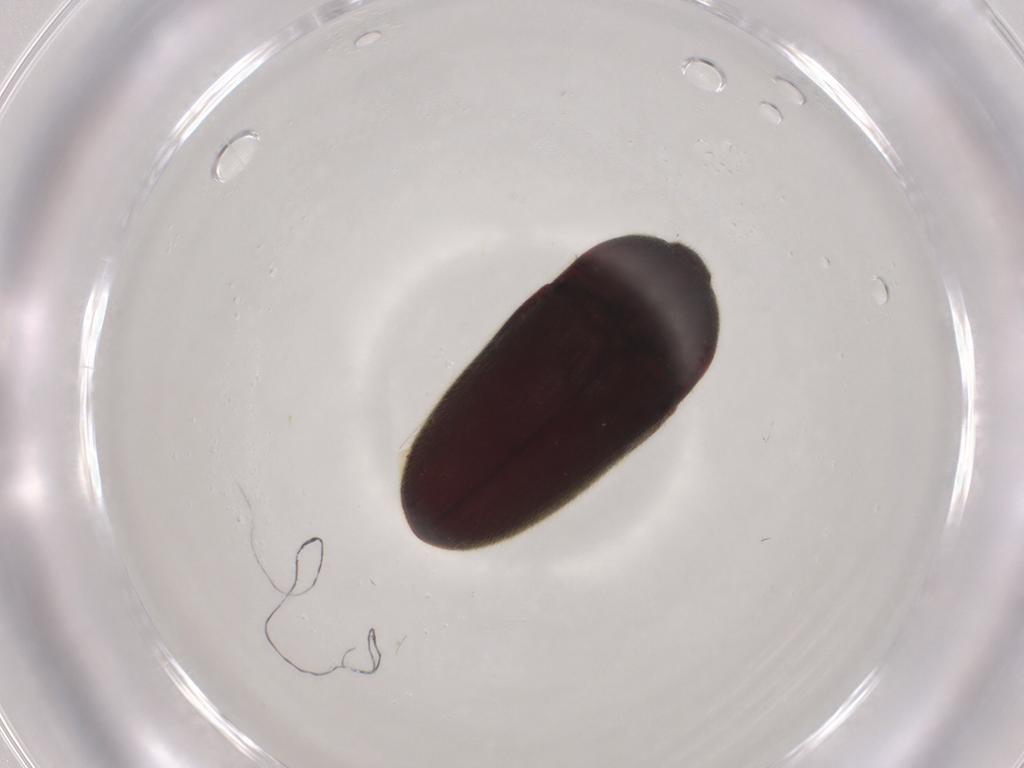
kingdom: Animalia
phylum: Arthropoda
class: Insecta
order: Coleoptera
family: Throscidae
